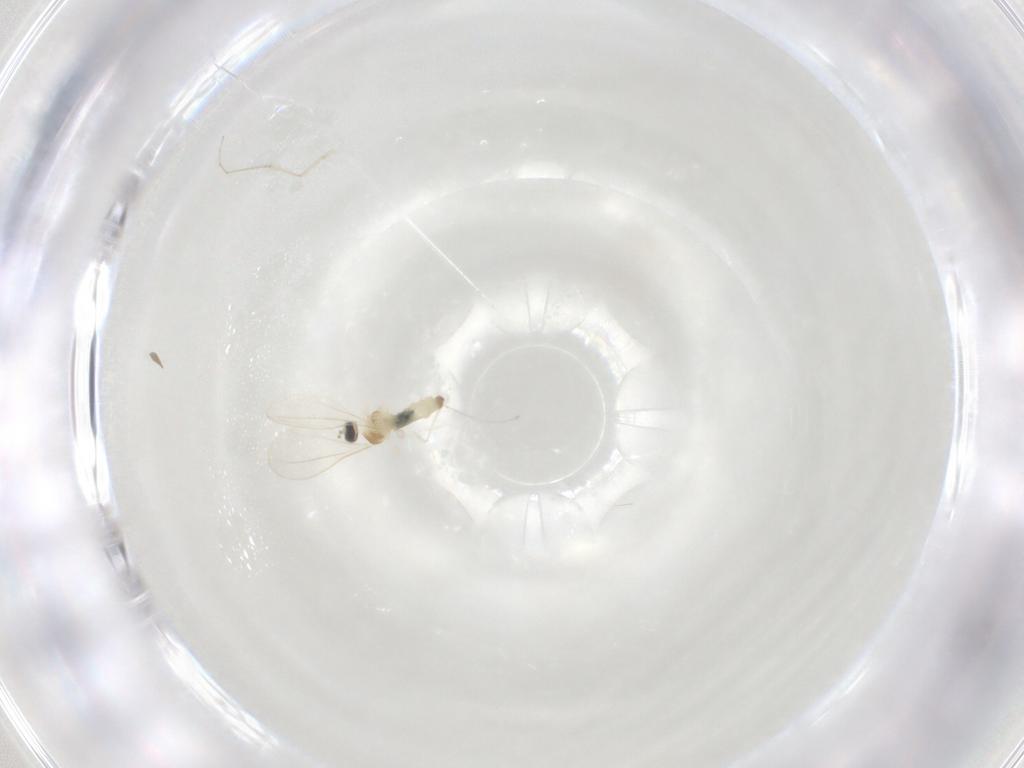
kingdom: Animalia
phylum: Arthropoda
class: Insecta
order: Diptera
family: Cecidomyiidae
